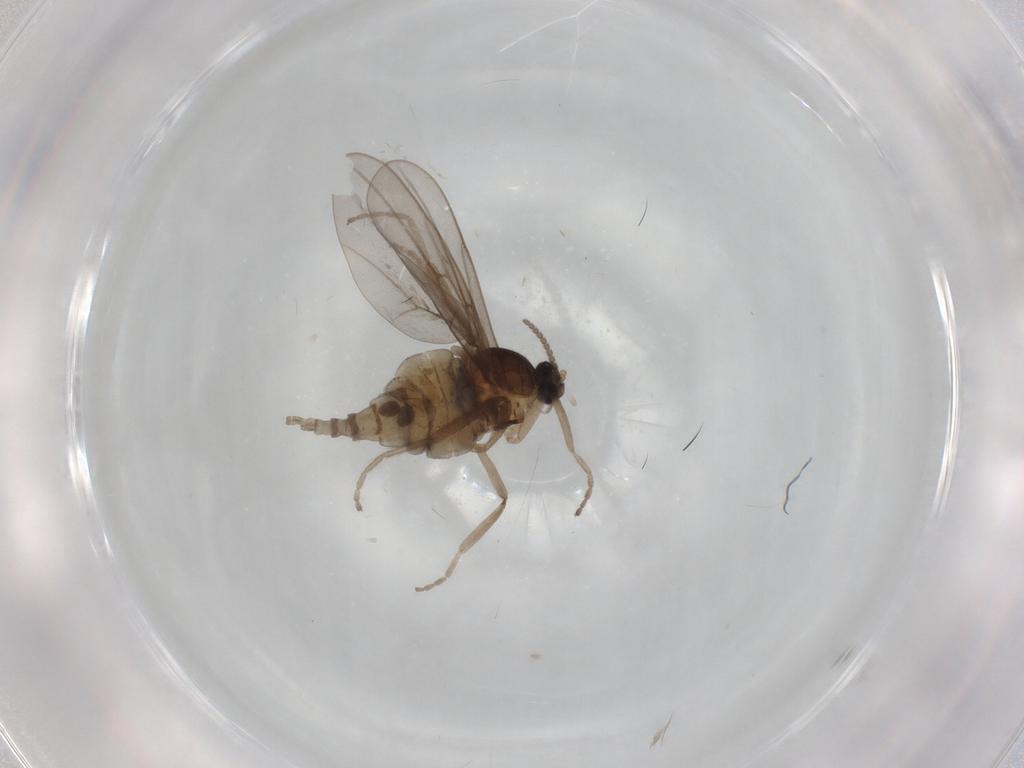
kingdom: Animalia
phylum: Arthropoda
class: Insecta
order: Diptera
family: Cecidomyiidae
